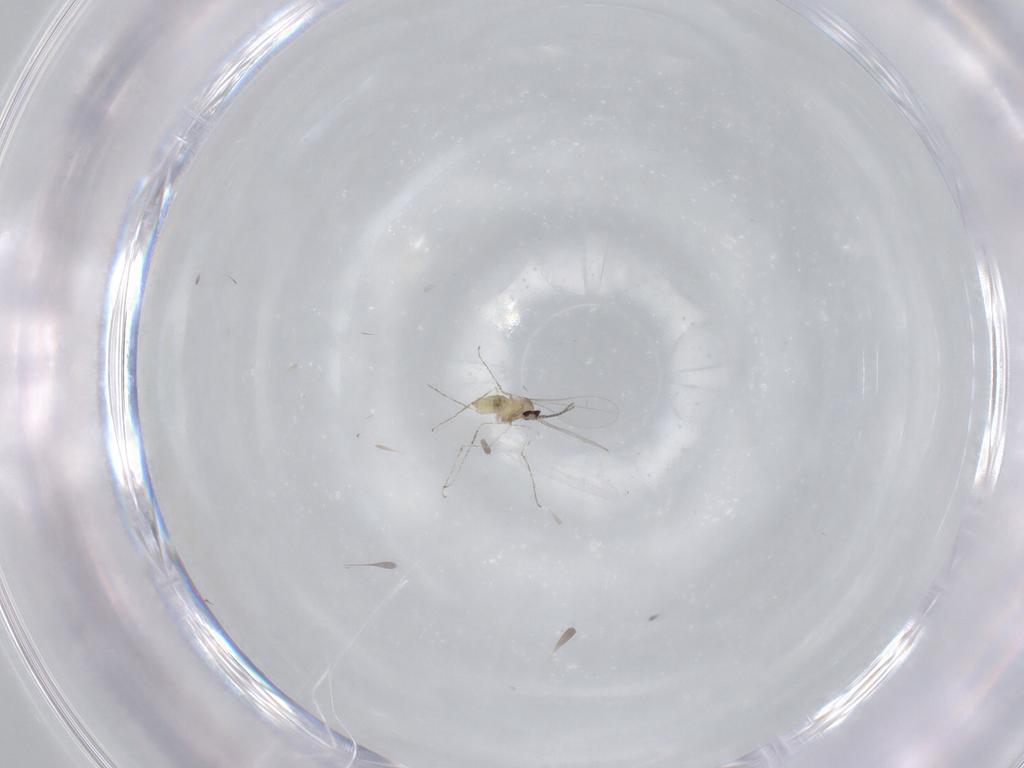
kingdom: Animalia
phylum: Arthropoda
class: Insecta
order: Diptera
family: Cecidomyiidae
